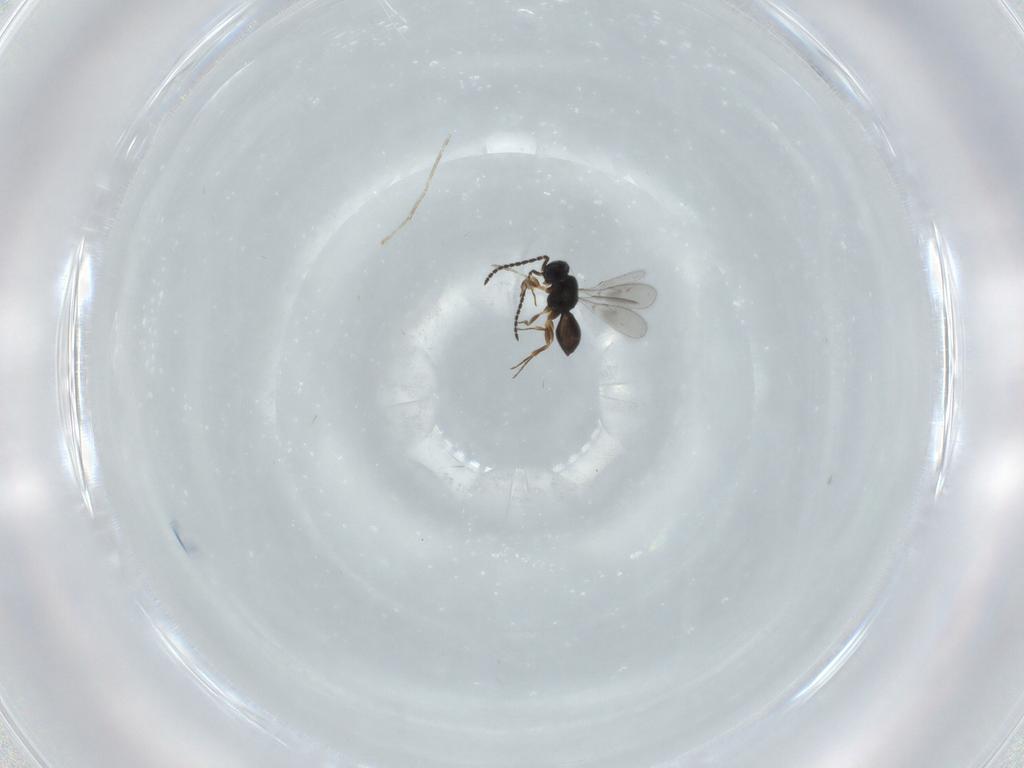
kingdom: Animalia
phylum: Arthropoda
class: Insecta
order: Hymenoptera
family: Scelionidae
